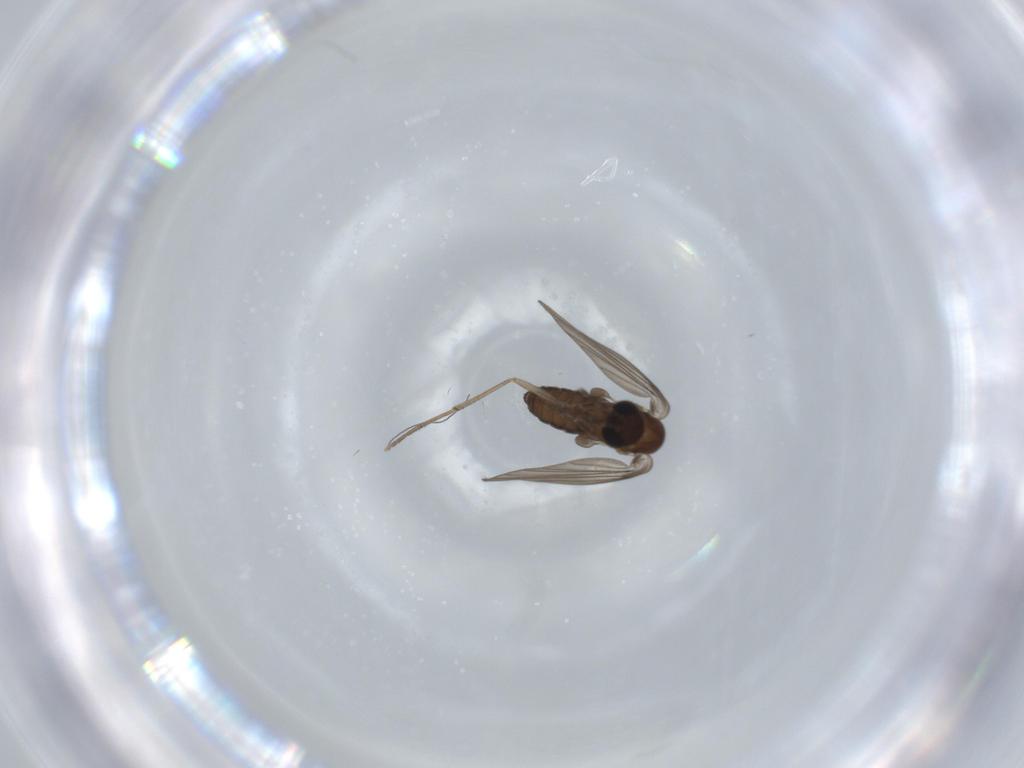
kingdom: Animalia
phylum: Arthropoda
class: Insecta
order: Diptera
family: Psychodidae
